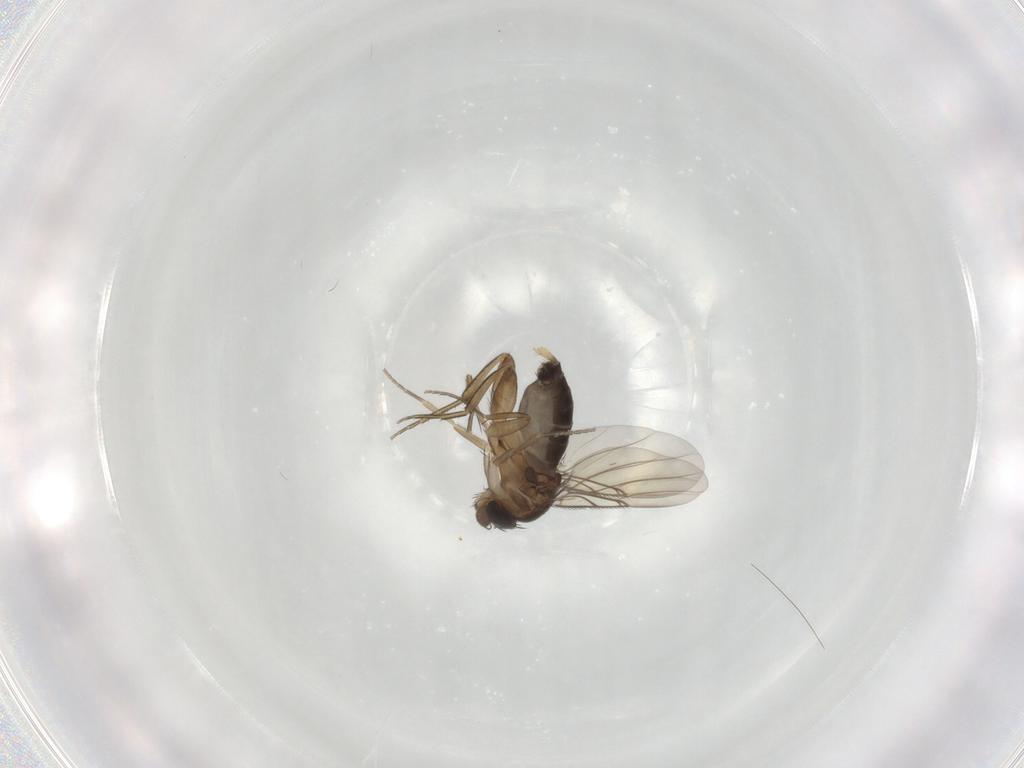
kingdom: Animalia
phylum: Arthropoda
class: Insecta
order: Diptera
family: Phoridae
